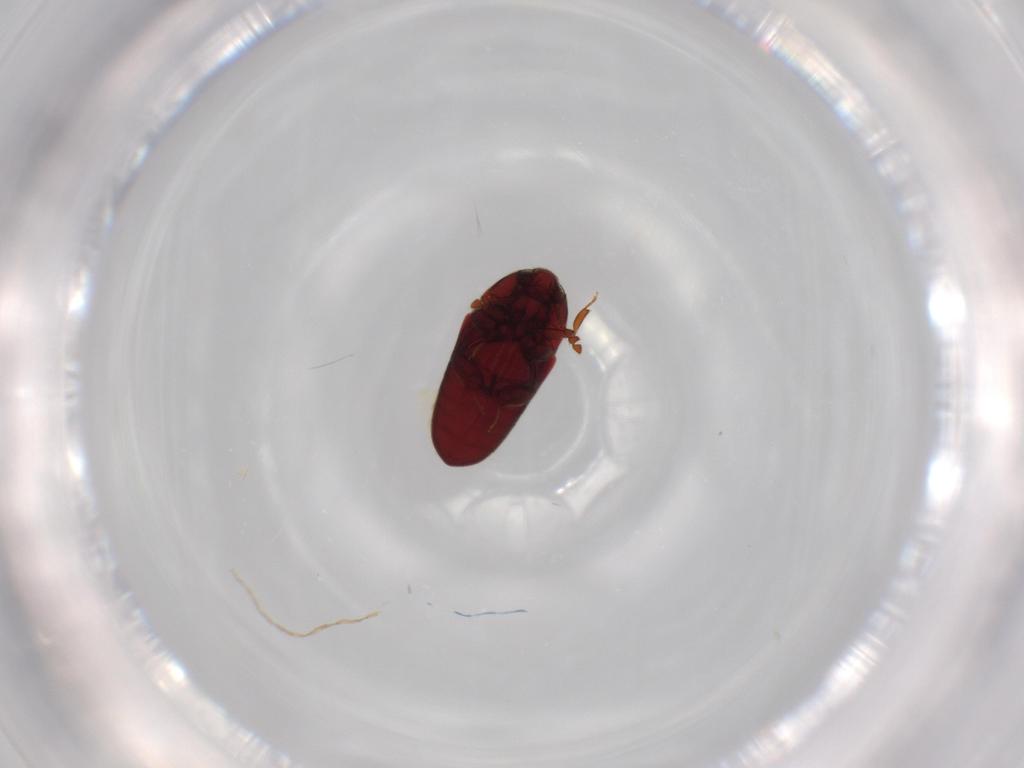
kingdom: Animalia
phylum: Arthropoda
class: Insecta
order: Coleoptera
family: Throscidae
